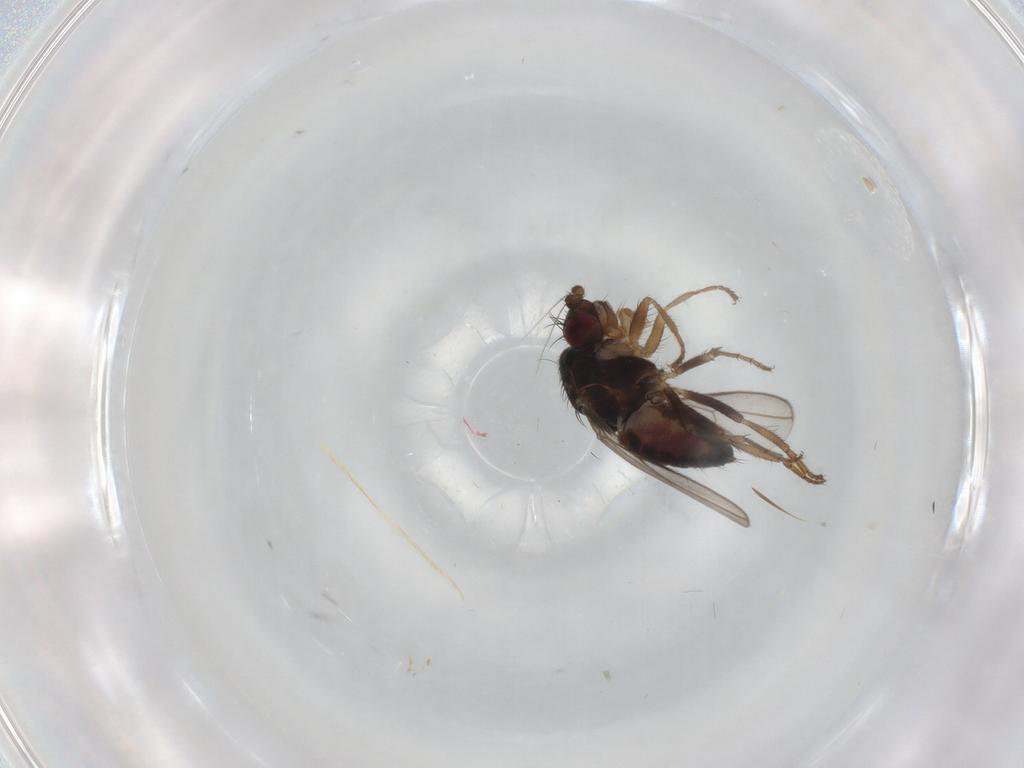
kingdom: Animalia
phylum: Arthropoda
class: Insecta
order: Diptera
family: Sphaeroceridae
